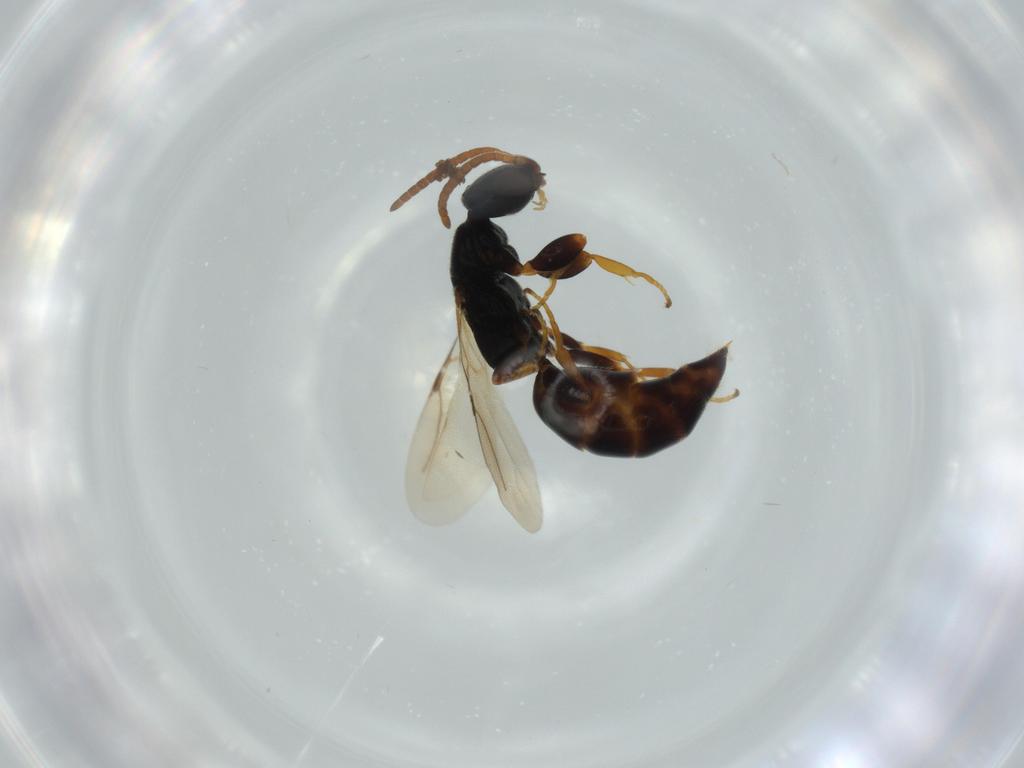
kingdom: Animalia
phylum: Arthropoda
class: Insecta
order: Hymenoptera
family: Bethylidae
